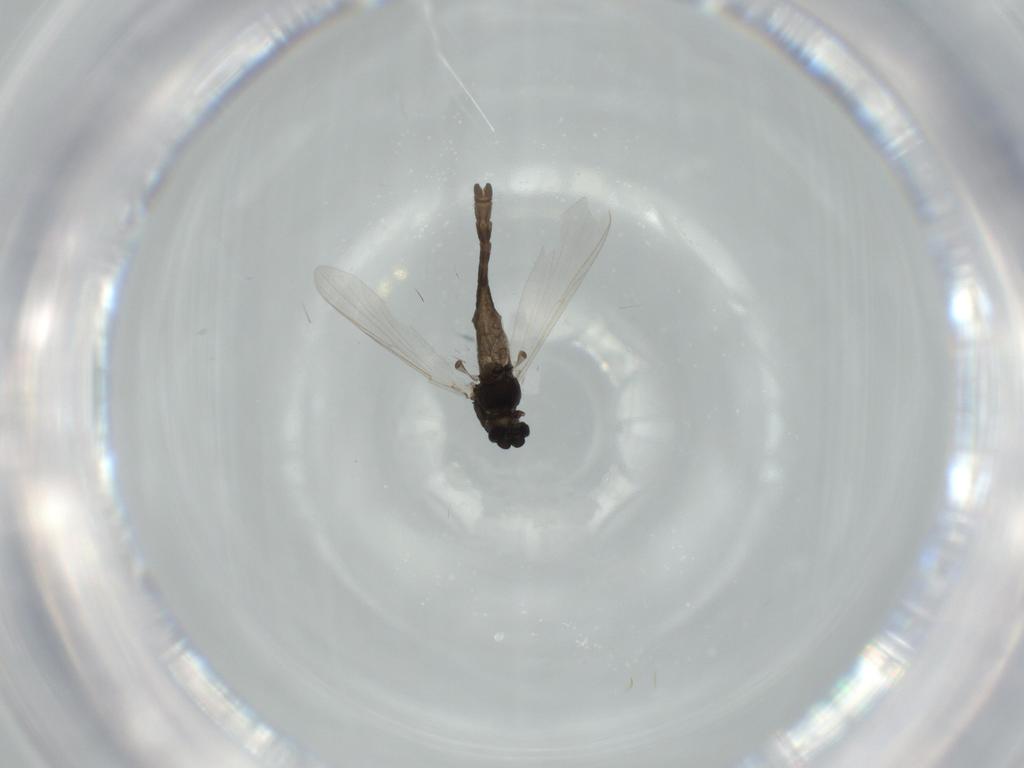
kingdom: Animalia
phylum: Arthropoda
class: Insecta
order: Diptera
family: Chironomidae
